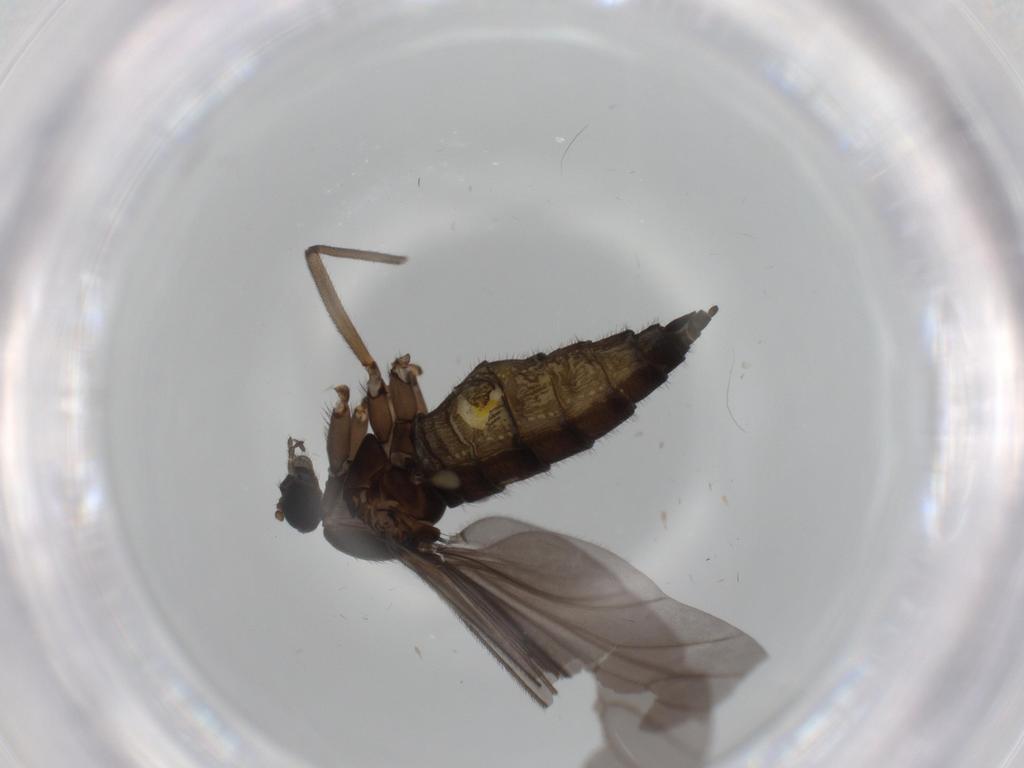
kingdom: Animalia
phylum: Arthropoda
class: Insecta
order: Diptera
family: Sciaridae
